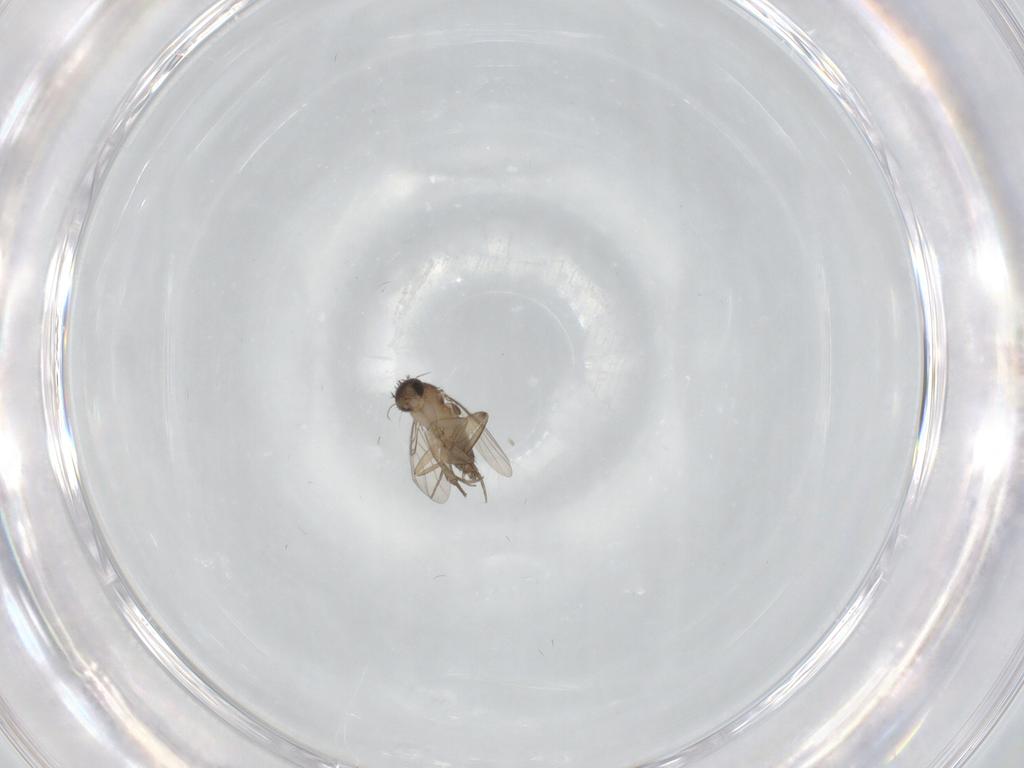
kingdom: Animalia
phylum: Arthropoda
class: Insecta
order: Diptera
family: Phoridae
